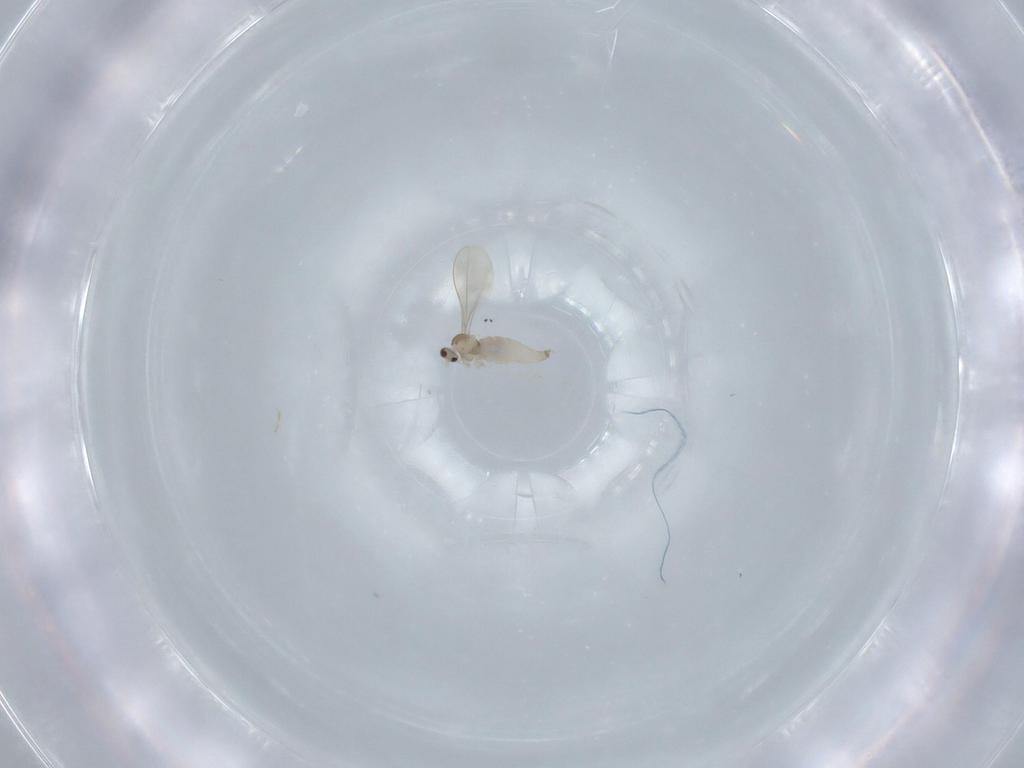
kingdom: Animalia
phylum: Arthropoda
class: Insecta
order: Diptera
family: Cecidomyiidae
